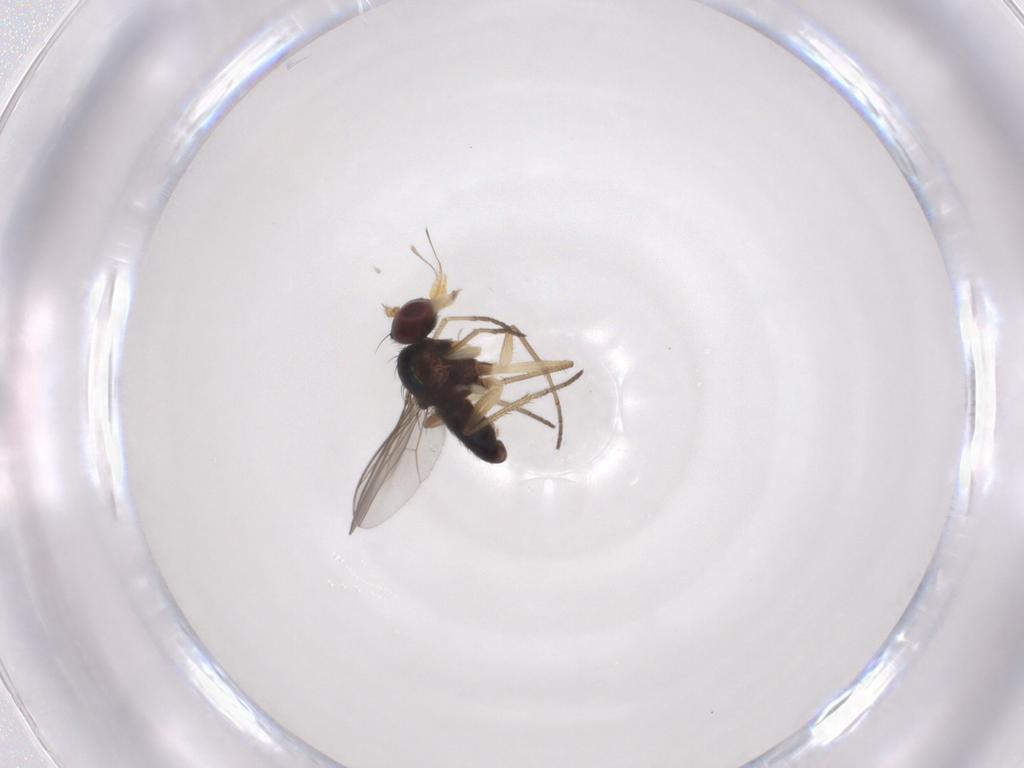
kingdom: Animalia
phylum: Arthropoda
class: Insecta
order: Diptera
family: Dolichopodidae
